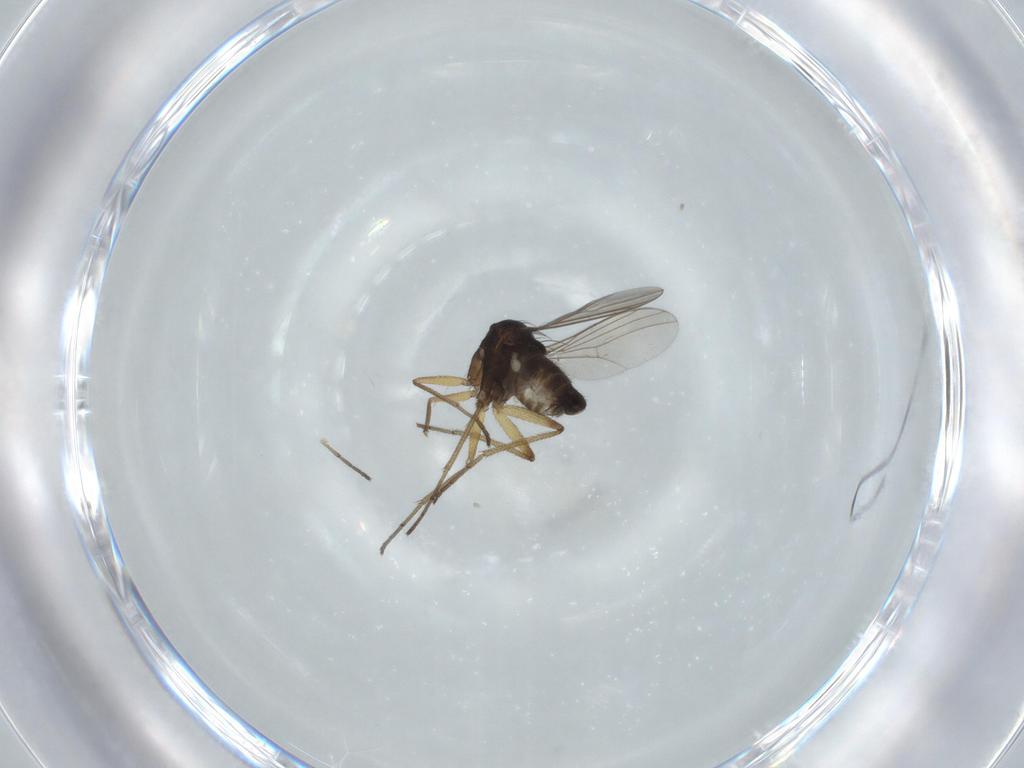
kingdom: Animalia
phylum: Arthropoda
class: Insecta
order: Diptera
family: Dolichopodidae
